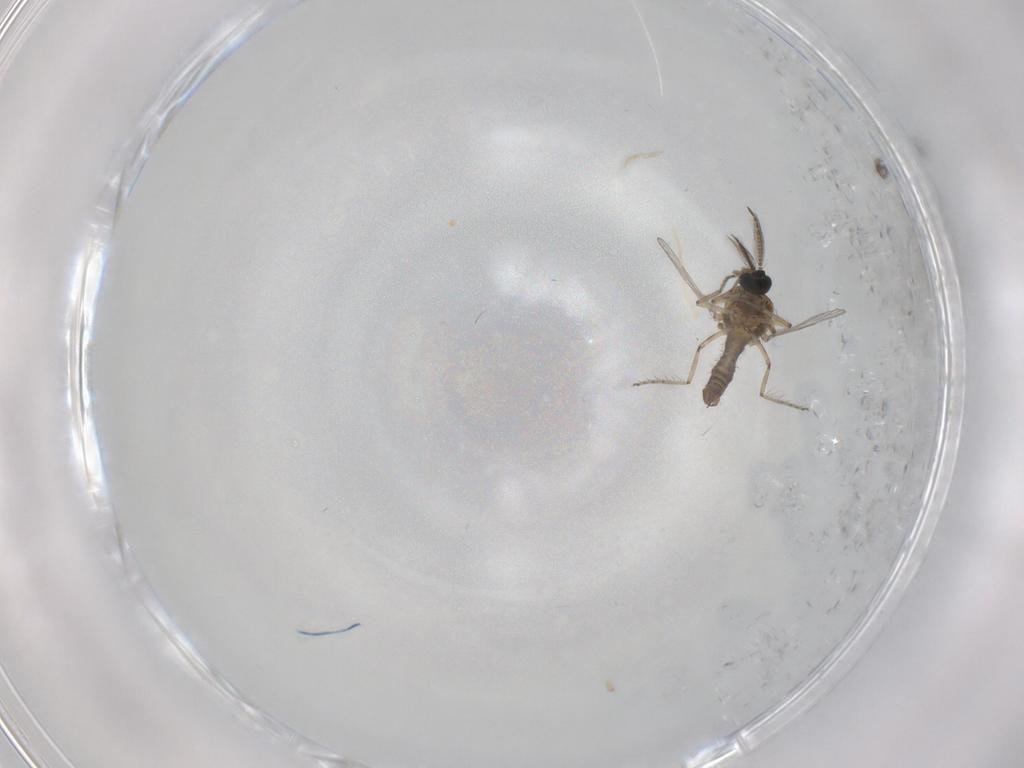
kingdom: Animalia
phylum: Arthropoda
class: Insecta
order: Diptera
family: Ceratopogonidae
